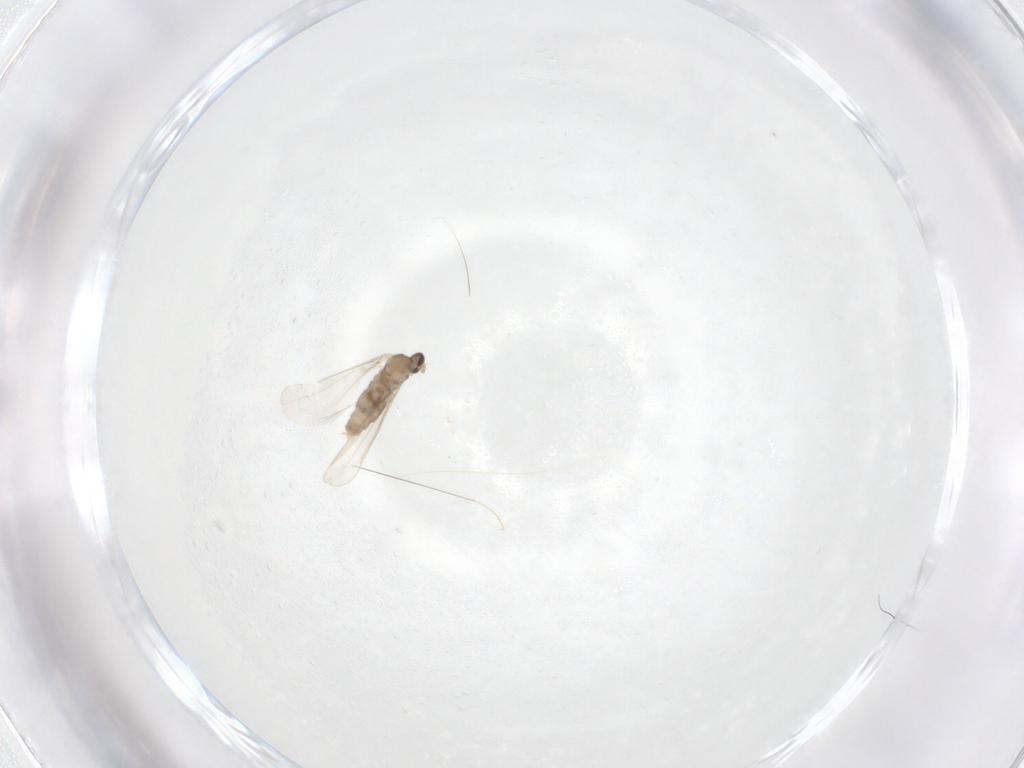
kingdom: Animalia
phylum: Arthropoda
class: Insecta
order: Diptera
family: Cecidomyiidae
